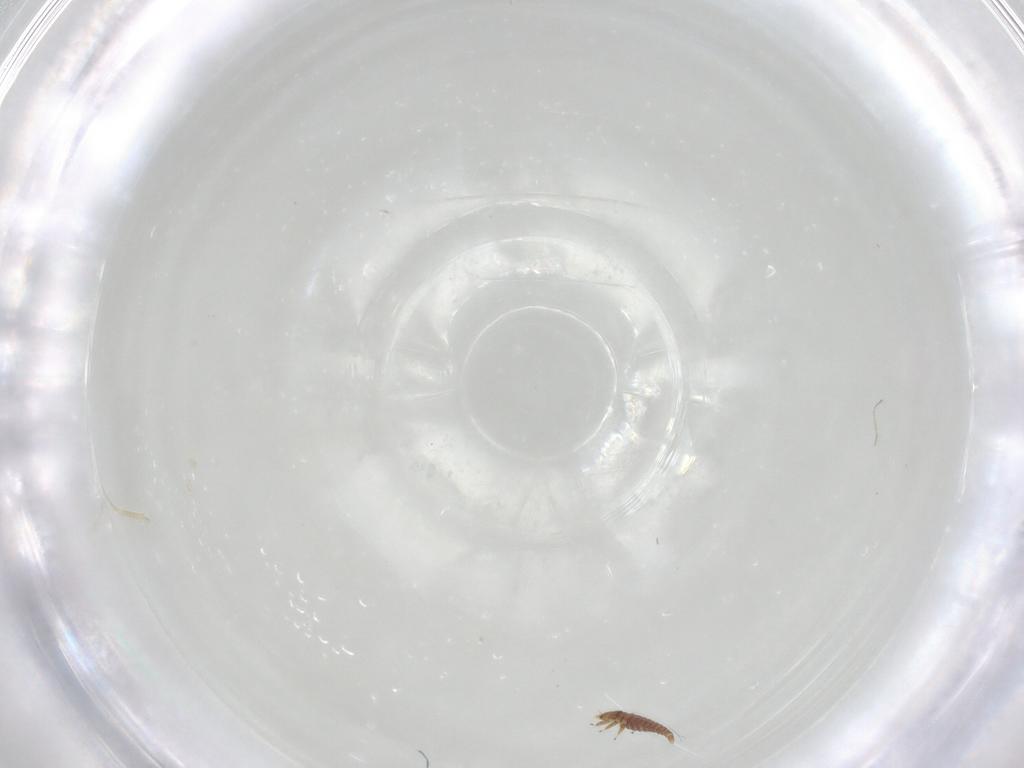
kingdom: Animalia
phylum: Arthropoda
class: Insecta
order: Neuroptera
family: Mantispidae
